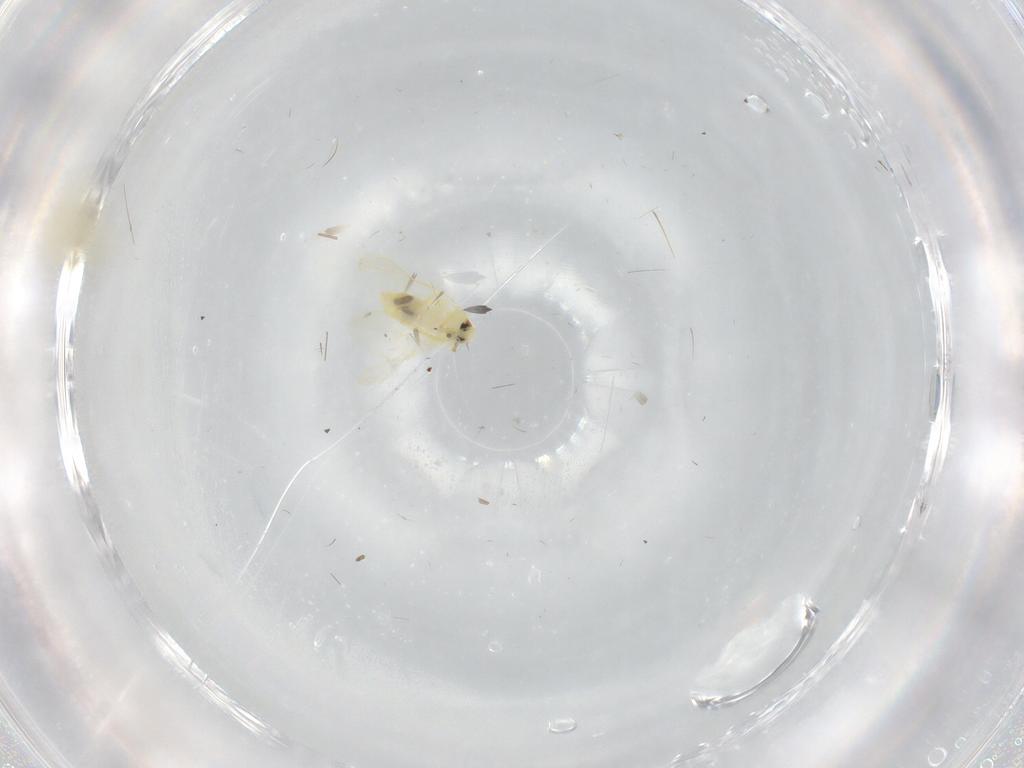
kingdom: Animalia
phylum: Arthropoda
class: Insecta
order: Hemiptera
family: Aleyrodidae
